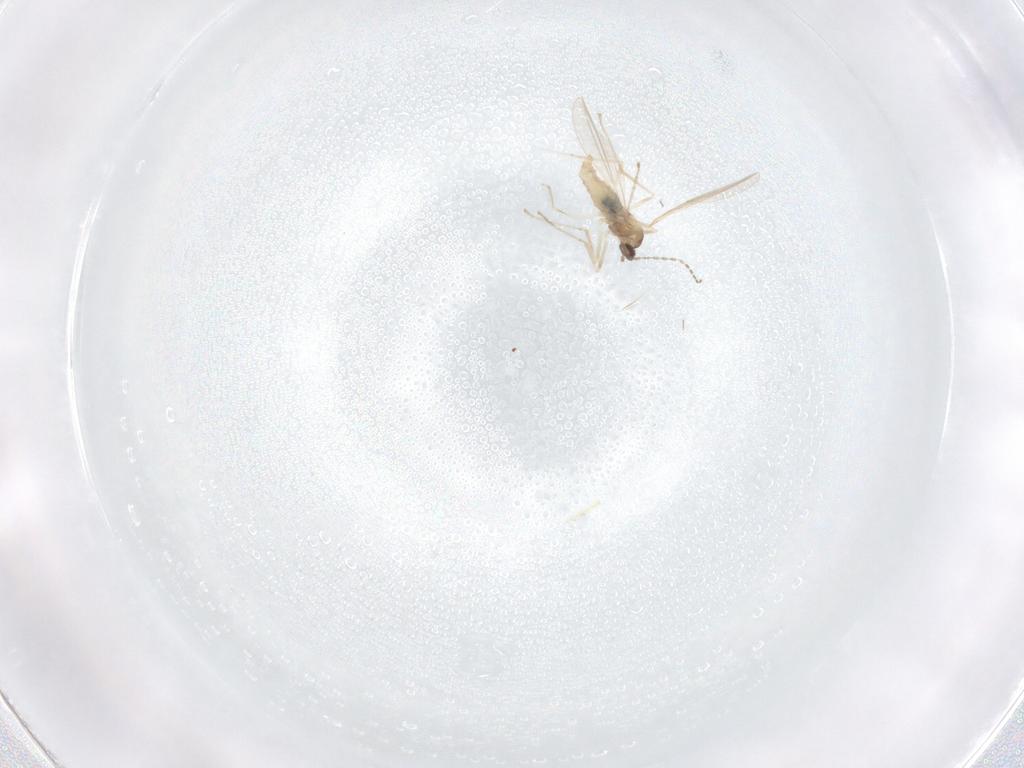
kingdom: Animalia
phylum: Arthropoda
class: Insecta
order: Diptera
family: Cecidomyiidae
